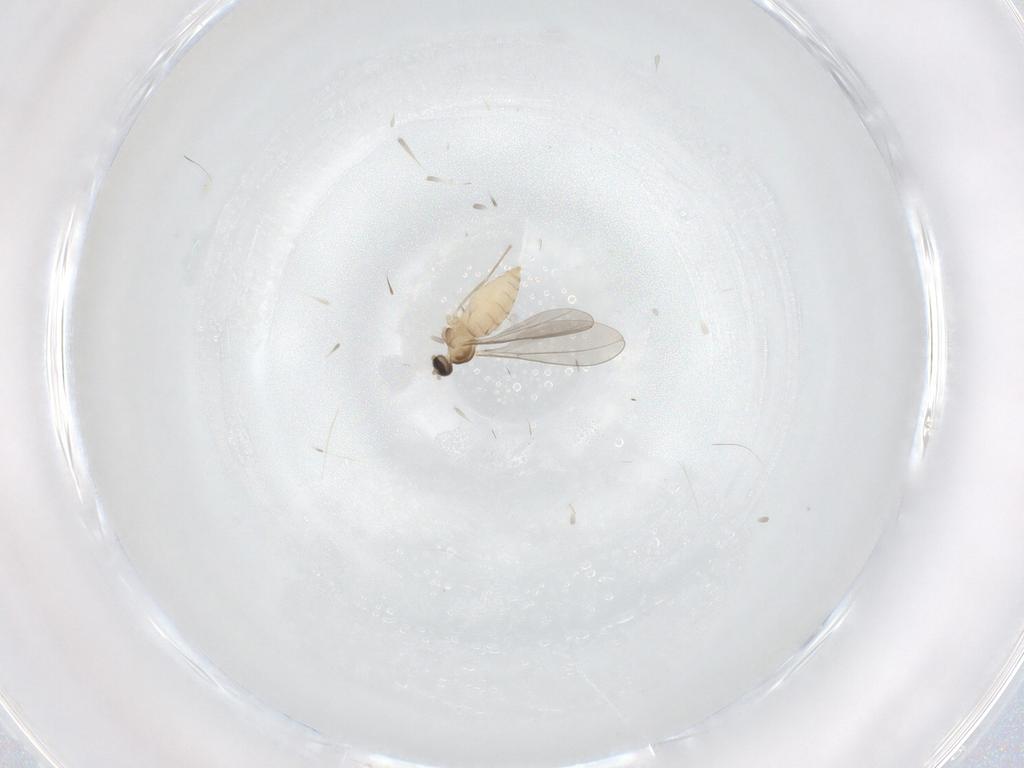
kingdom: Animalia
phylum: Arthropoda
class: Insecta
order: Diptera
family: Cecidomyiidae
